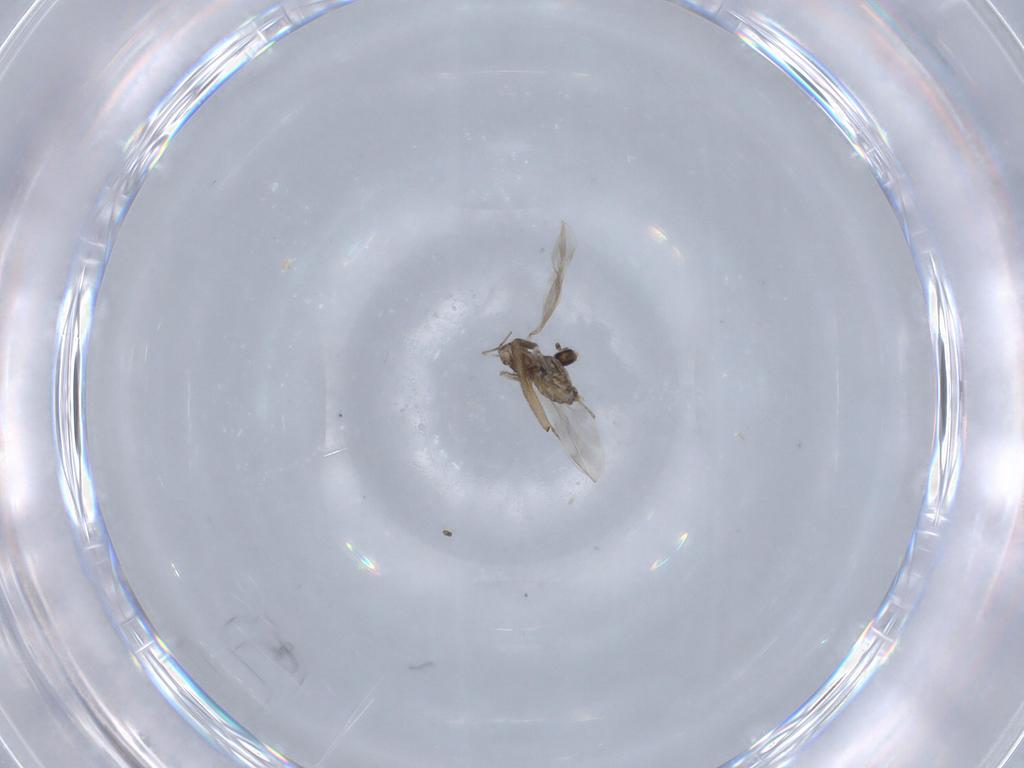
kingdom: Animalia
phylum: Arthropoda
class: Insecta
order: Diptera
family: Cecidomyiidae
